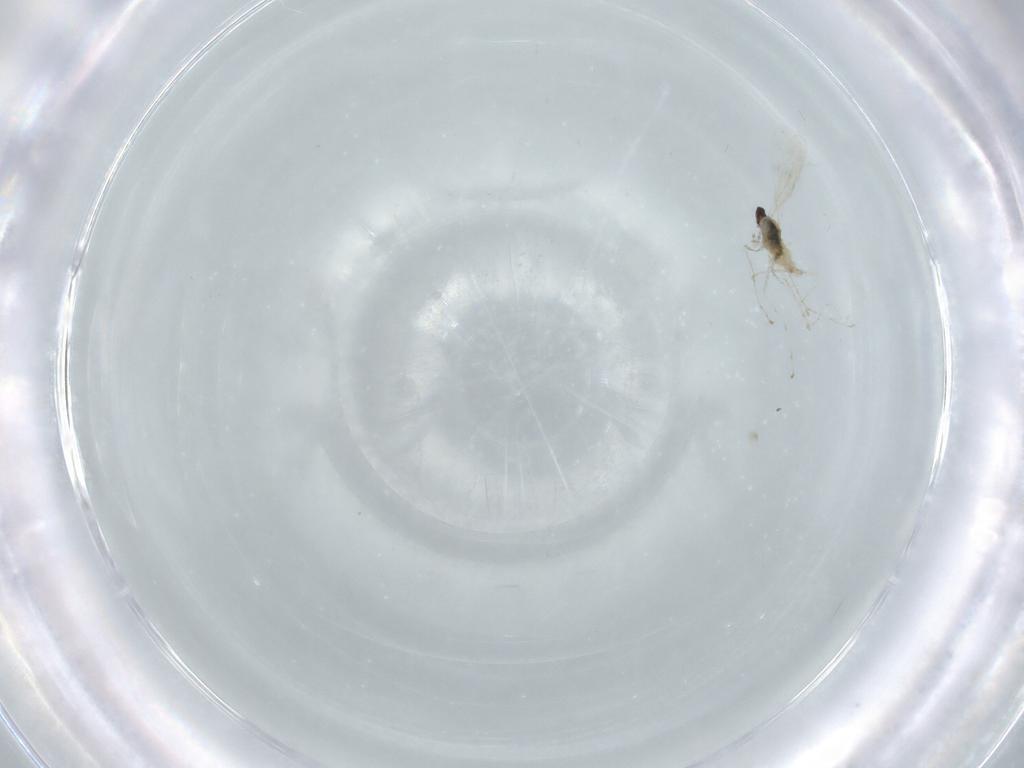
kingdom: Animalia
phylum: Arthropoda
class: Insecta
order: Diptera
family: Cecidomyiidae
